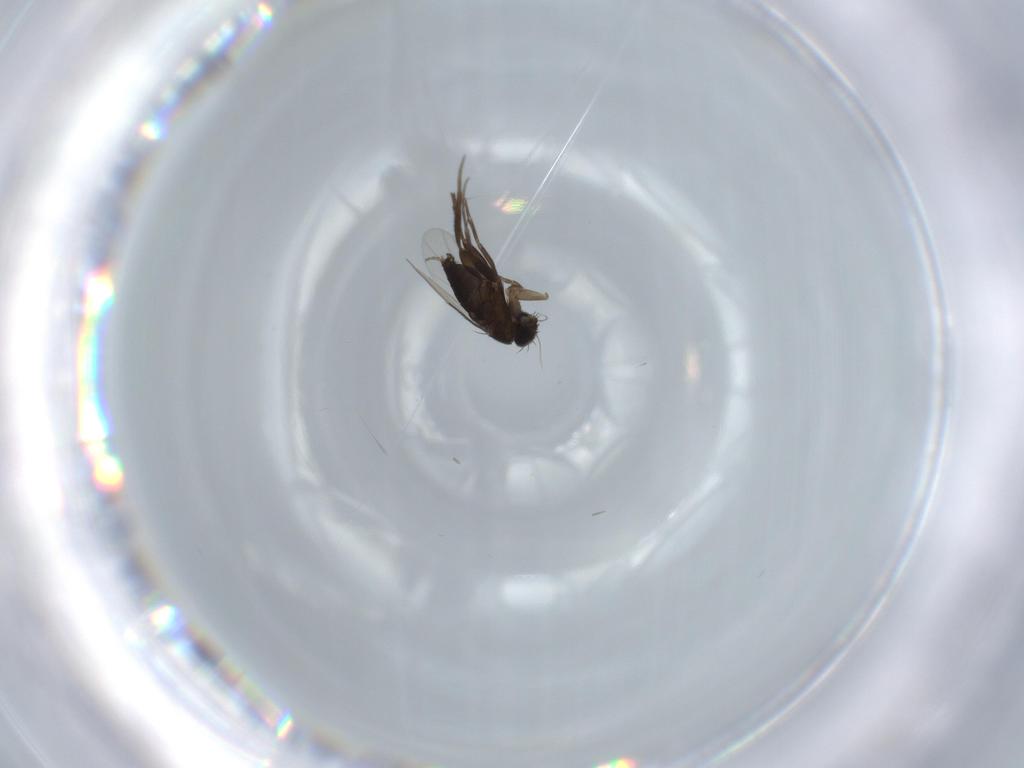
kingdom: Animalia
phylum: Arthropoda
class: Insecta
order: Diptera
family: Phoridae
